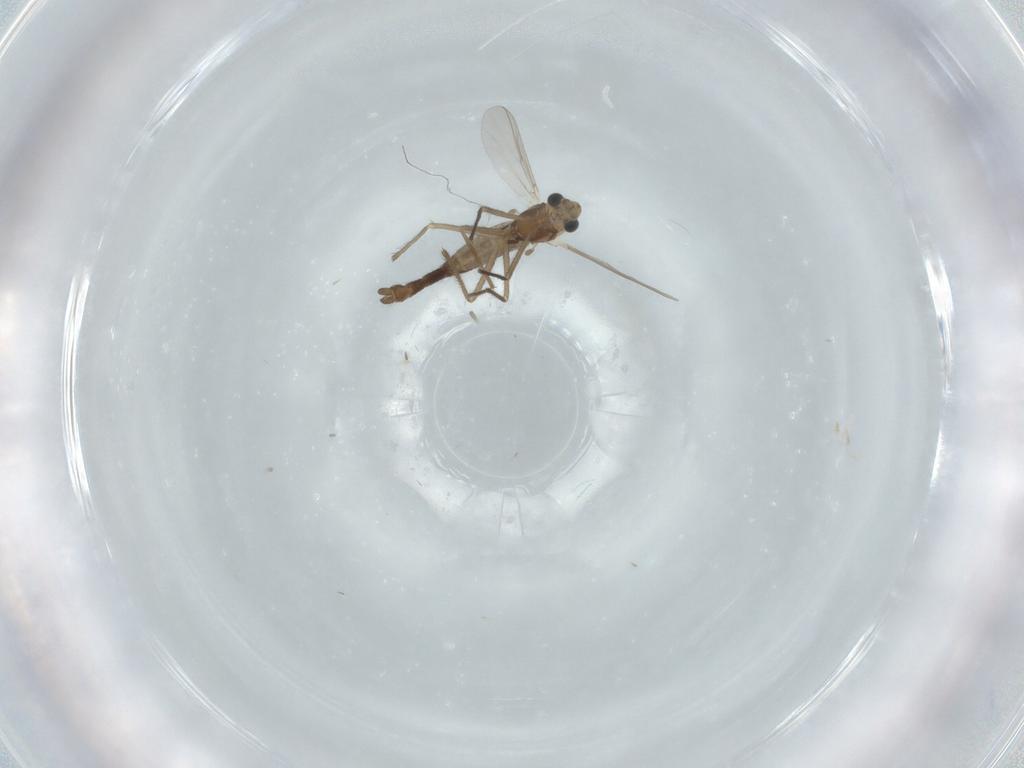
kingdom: Animalia
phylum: Arthropoda
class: Insecta
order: Diptera
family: Chironomidae
